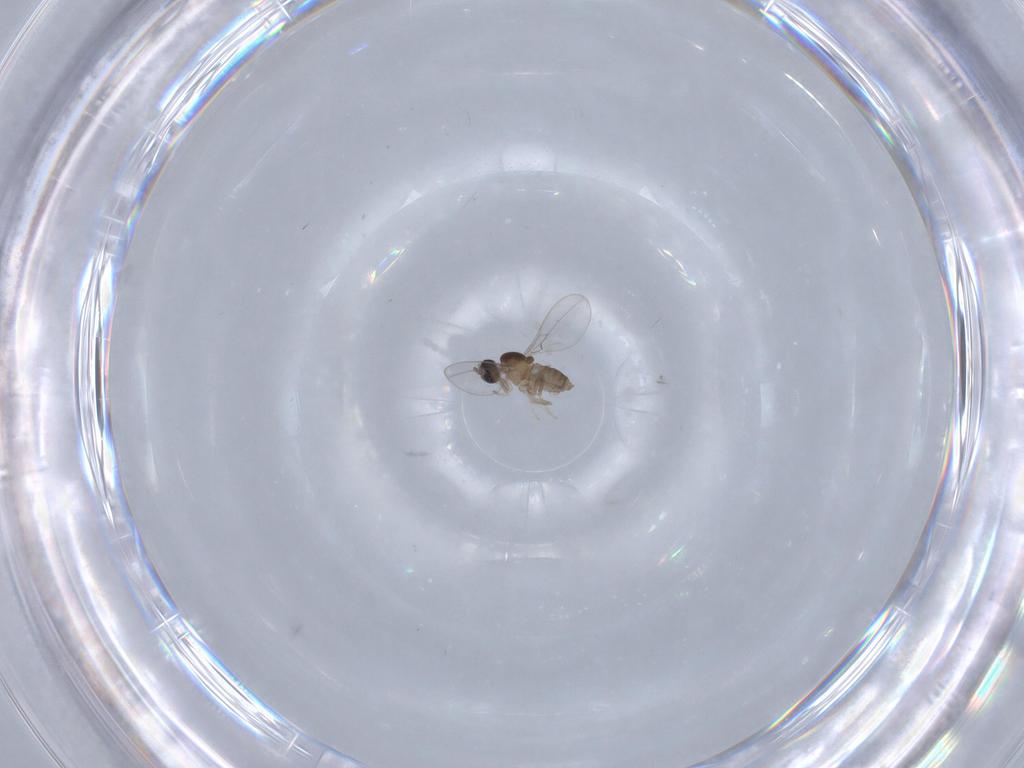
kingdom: Animalia
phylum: Arthropoda
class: Insecta
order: Diptera
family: Cecidomyiidae
